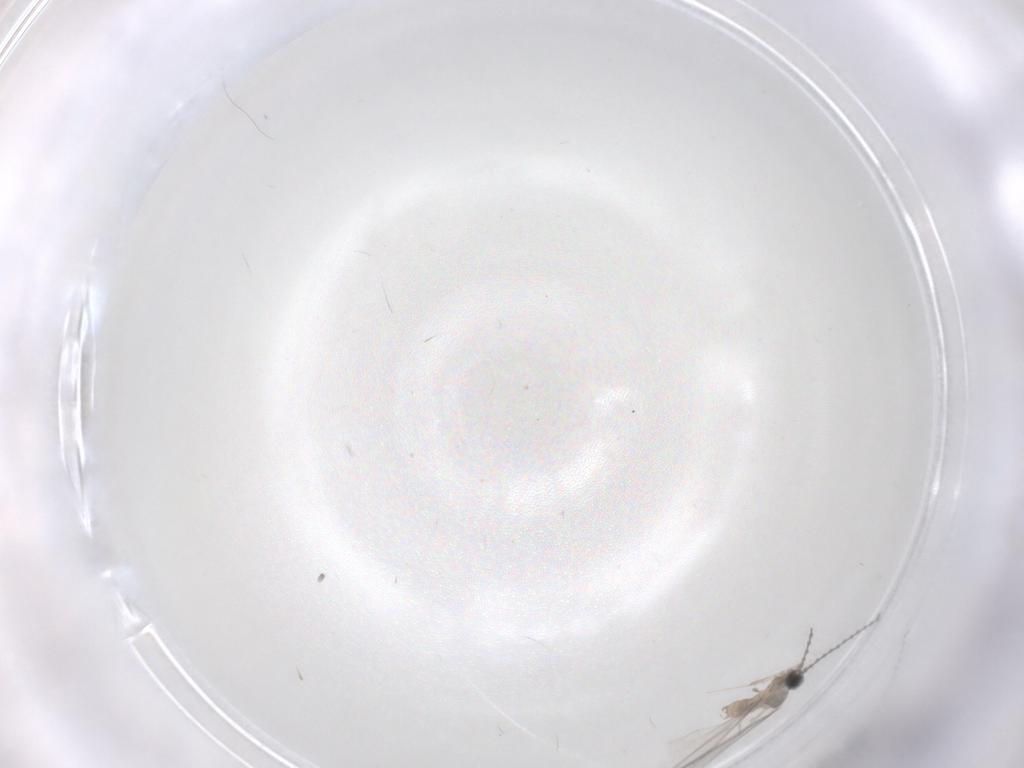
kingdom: Animalia
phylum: Arthropoda
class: Insecta
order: Diptera
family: Cecidomyiidae
